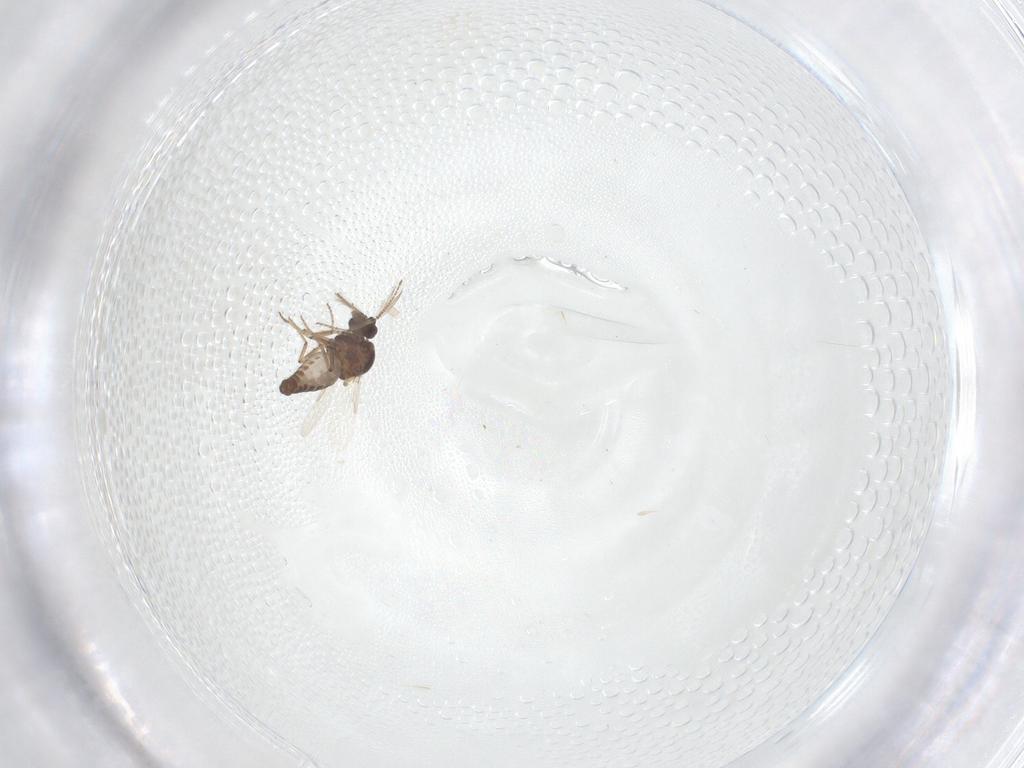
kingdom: Animalia
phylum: Arthropoda
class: Insecta
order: Diptera
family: Ceratopogonidae
